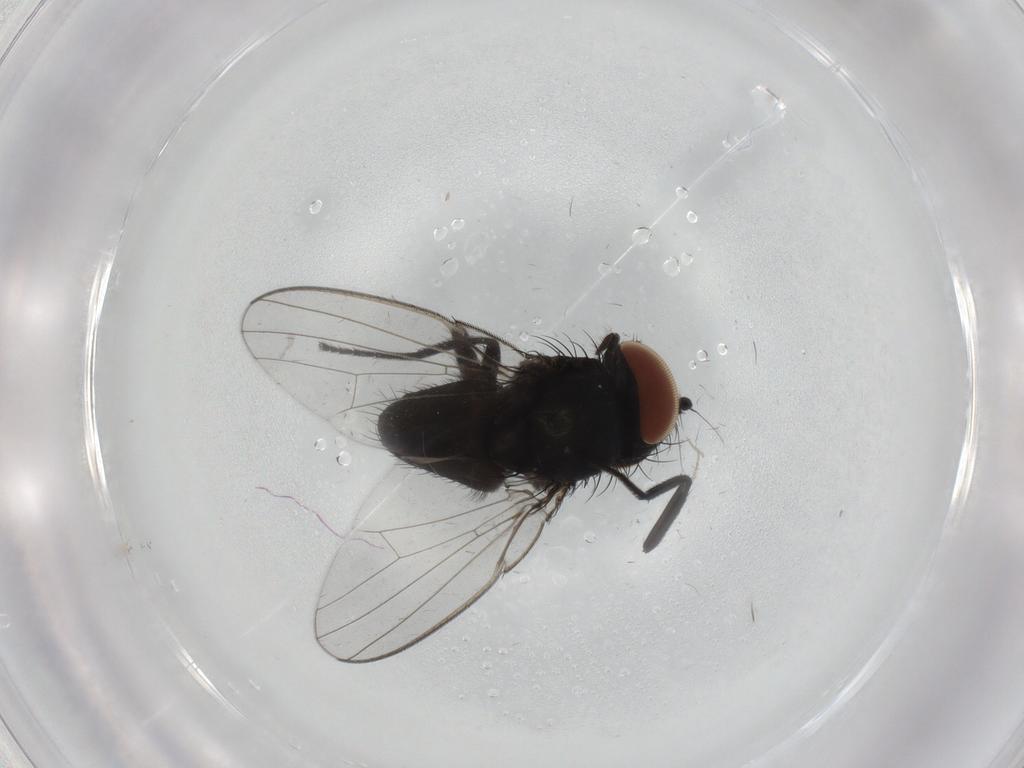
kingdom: Animalia
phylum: Arthropoda
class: Insecta
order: Diptera
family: Milichiidae
